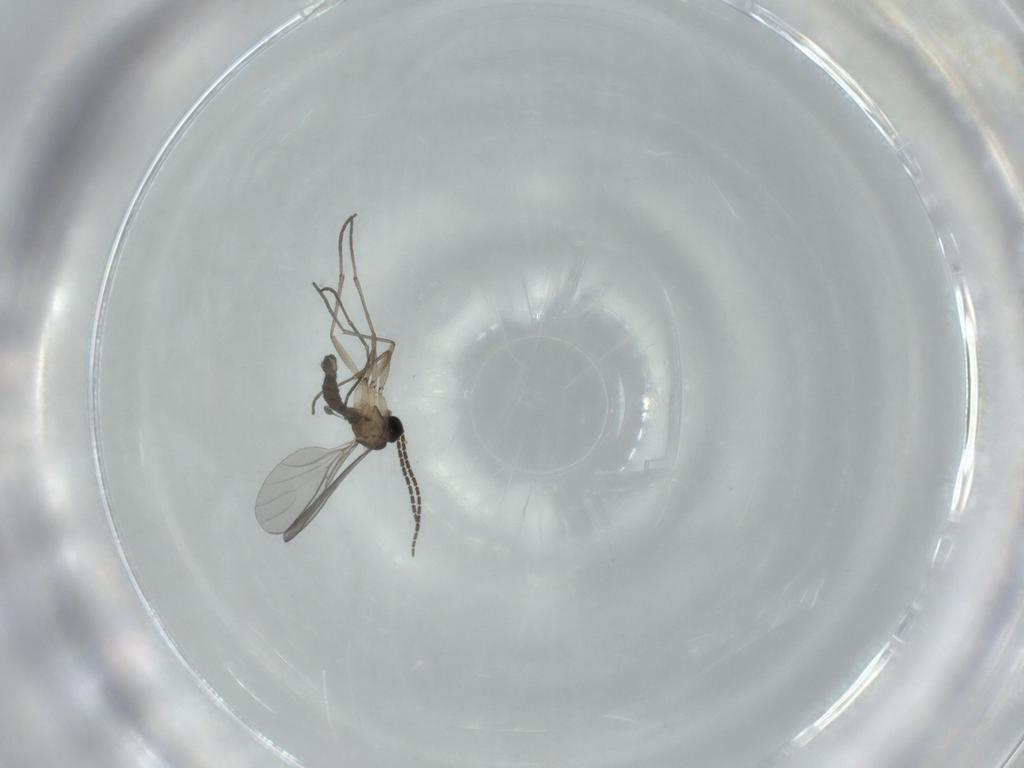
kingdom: Animalia
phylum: Arthropoda
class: Insecta
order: Diptera
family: Sciaridae
